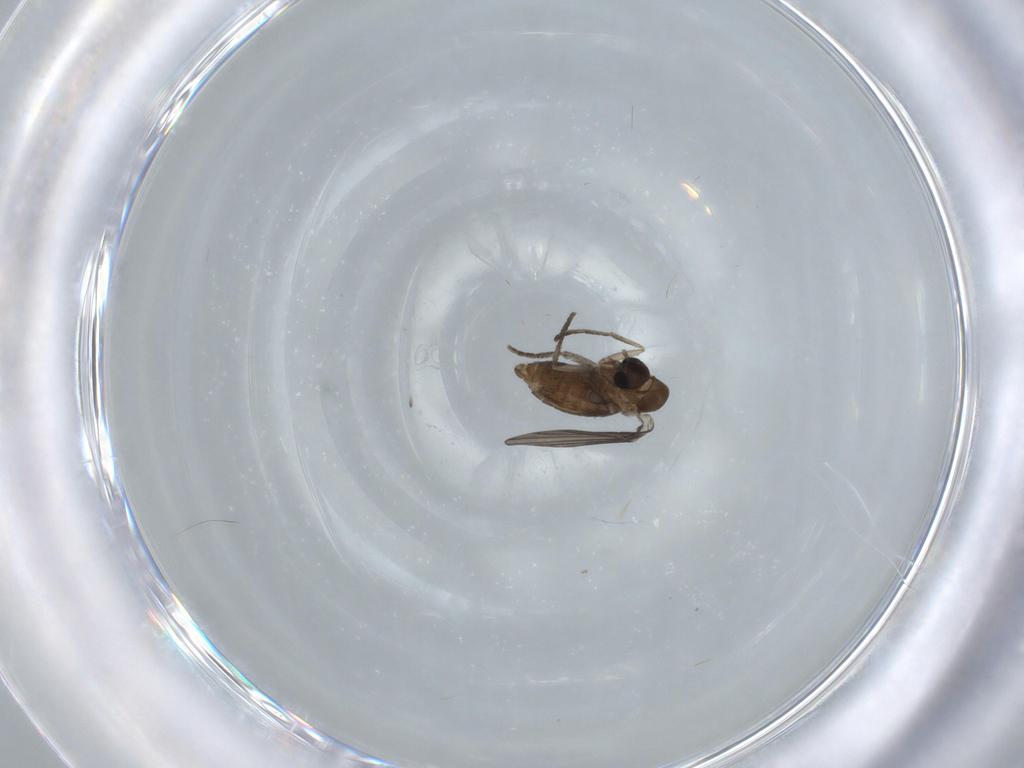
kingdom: Animalia
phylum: Arthropoda
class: Insecta
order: Diptera
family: Psychodidae
